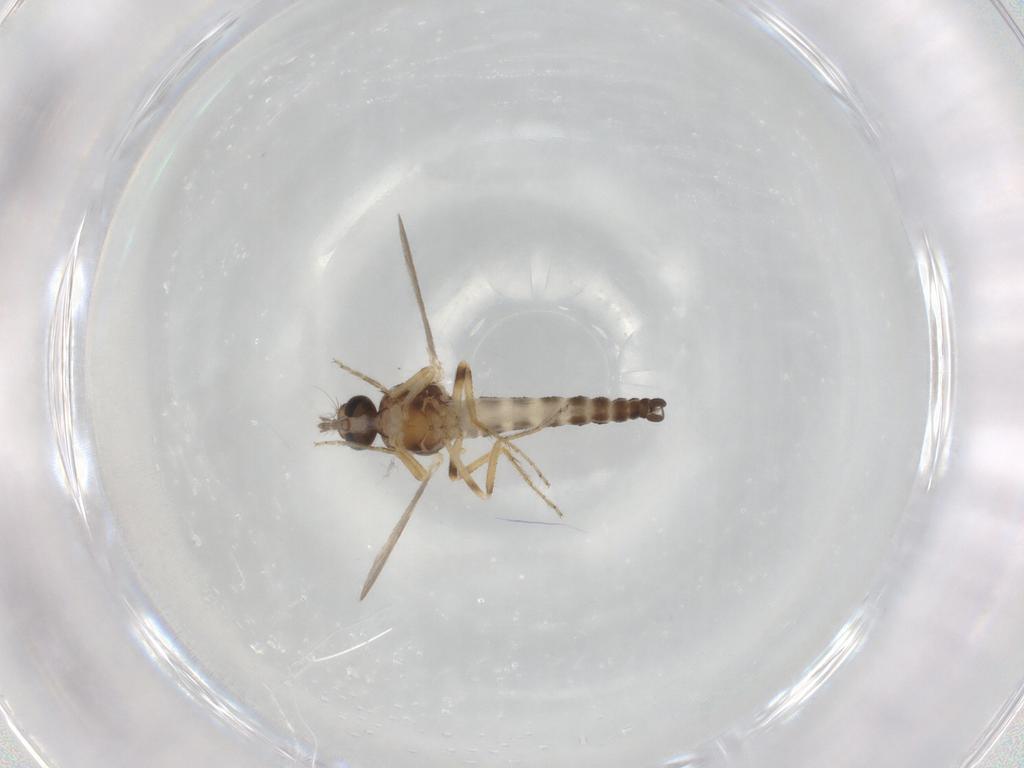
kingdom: Animalia
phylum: Arthropoda
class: Insecta
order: Diptera
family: Ceratopogonidae
